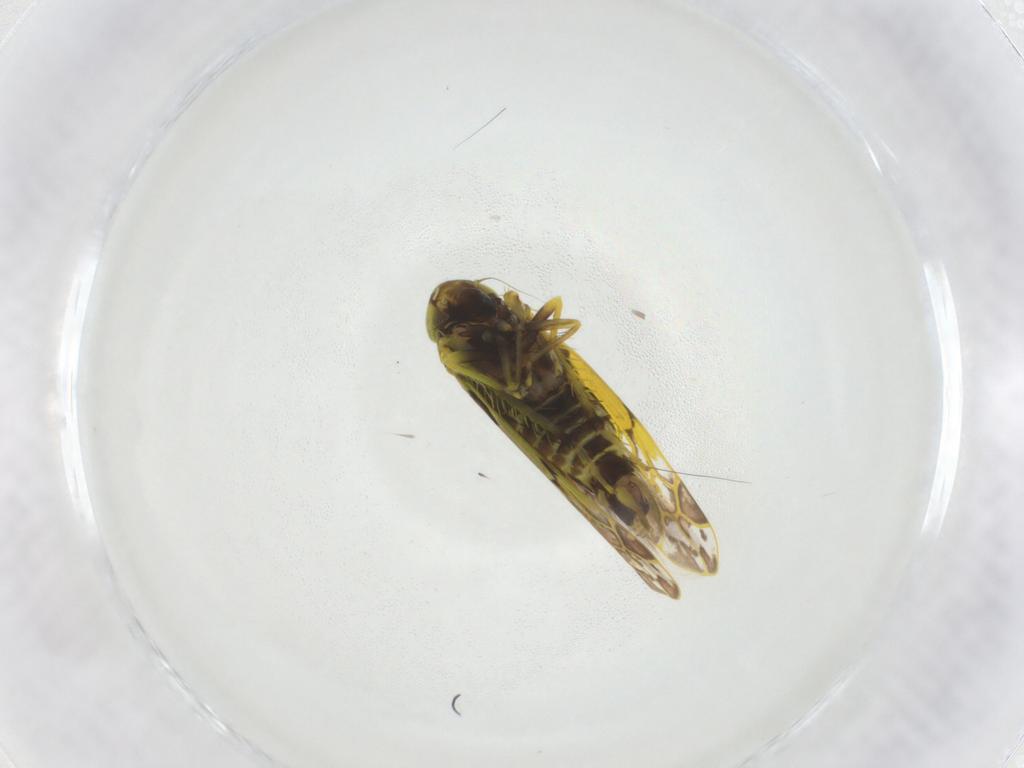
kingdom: Animalia
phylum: Arthropoda
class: Insecta
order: Hemiptera
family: Cicadellidae
